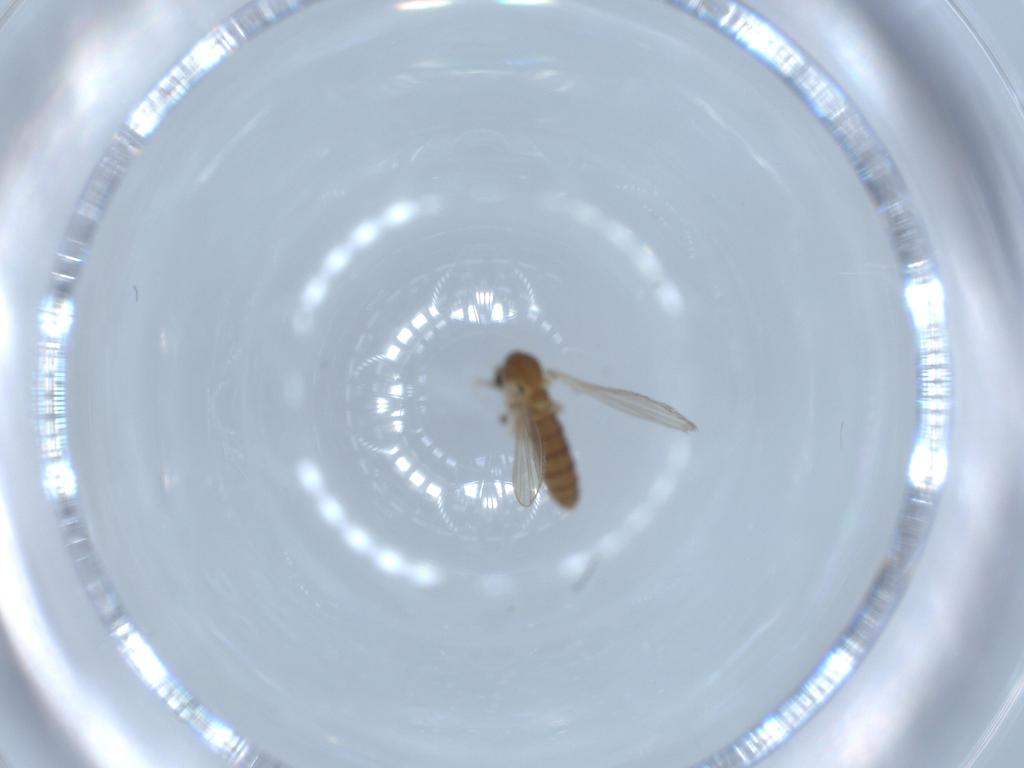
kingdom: Animalia
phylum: Arthropoda
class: Insecta
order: Diptera
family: Psychodidae
